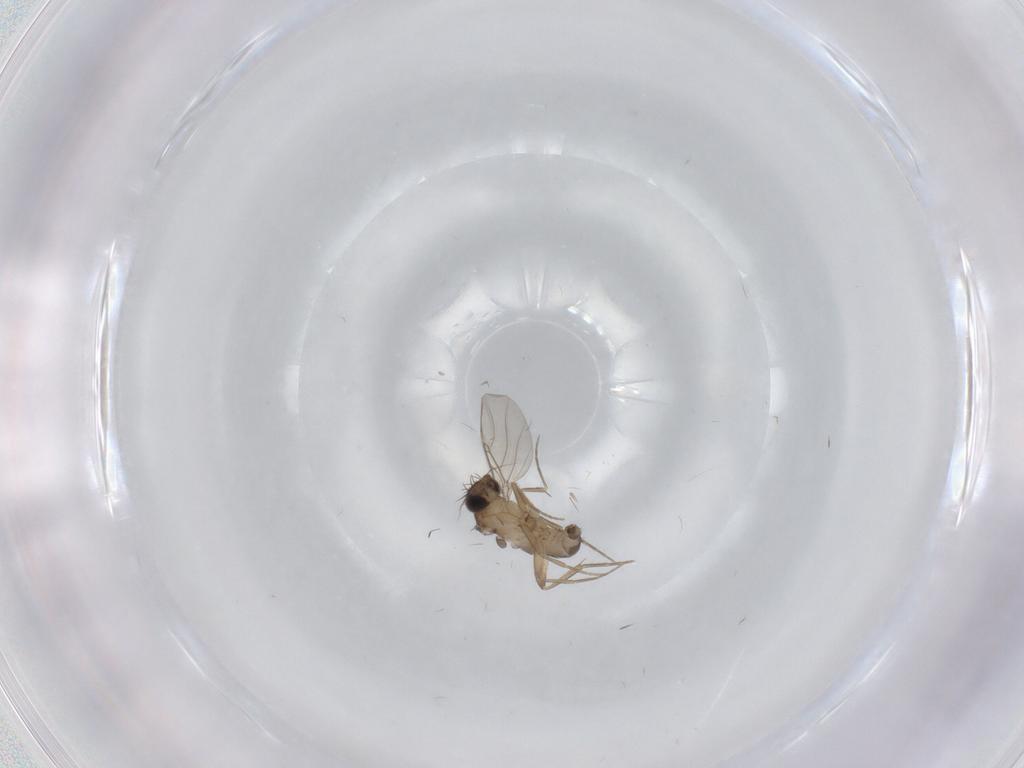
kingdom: Animalia
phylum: Arthropoda
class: Insecta
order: Diptera
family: Phoridae
